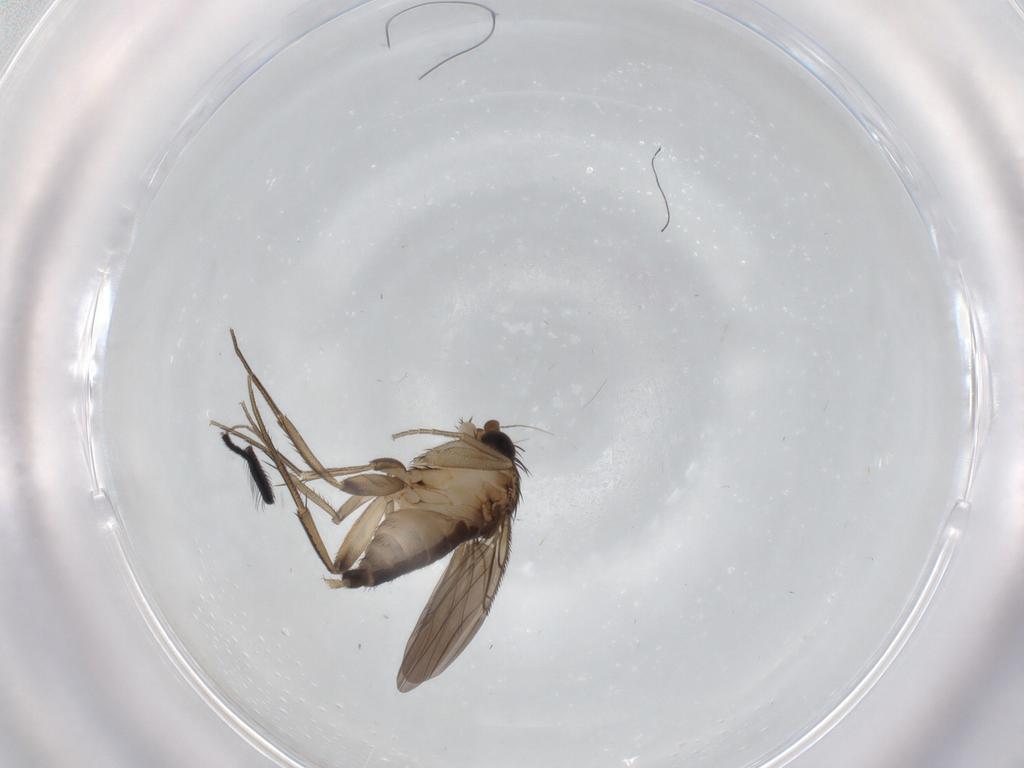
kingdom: Animalia
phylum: Arthropoda
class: Insecta
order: Diptera
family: Phoridae
